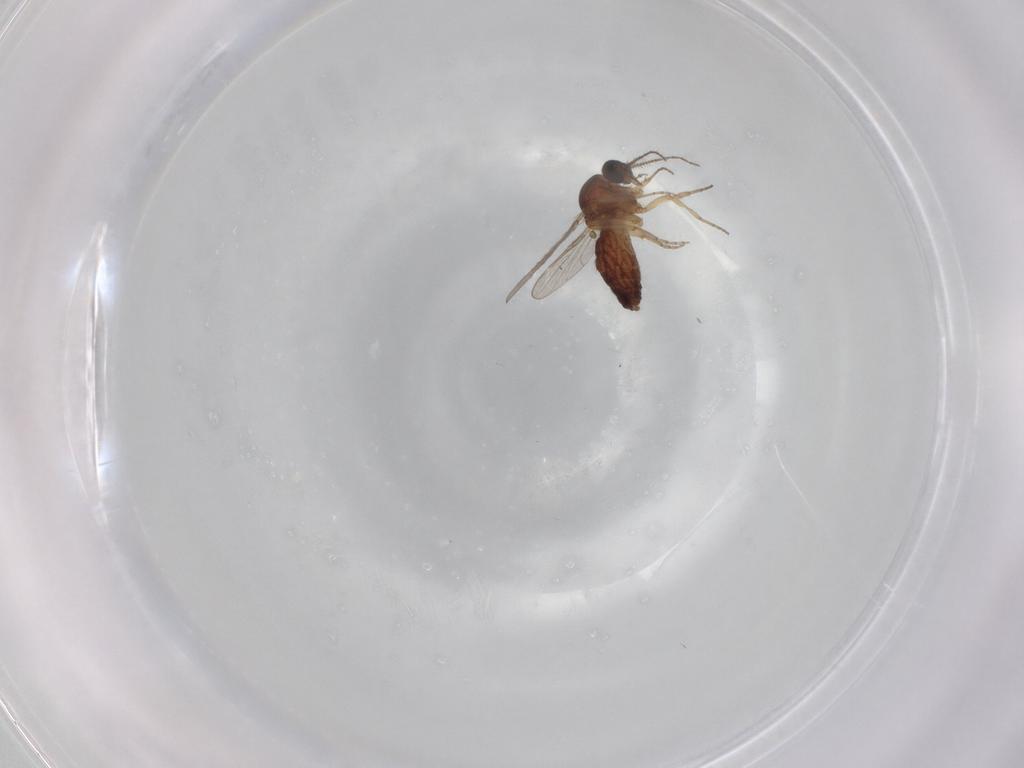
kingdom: Animalia
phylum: Arthropoda
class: Insecta
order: Diptera
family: Ceratopogonidae
